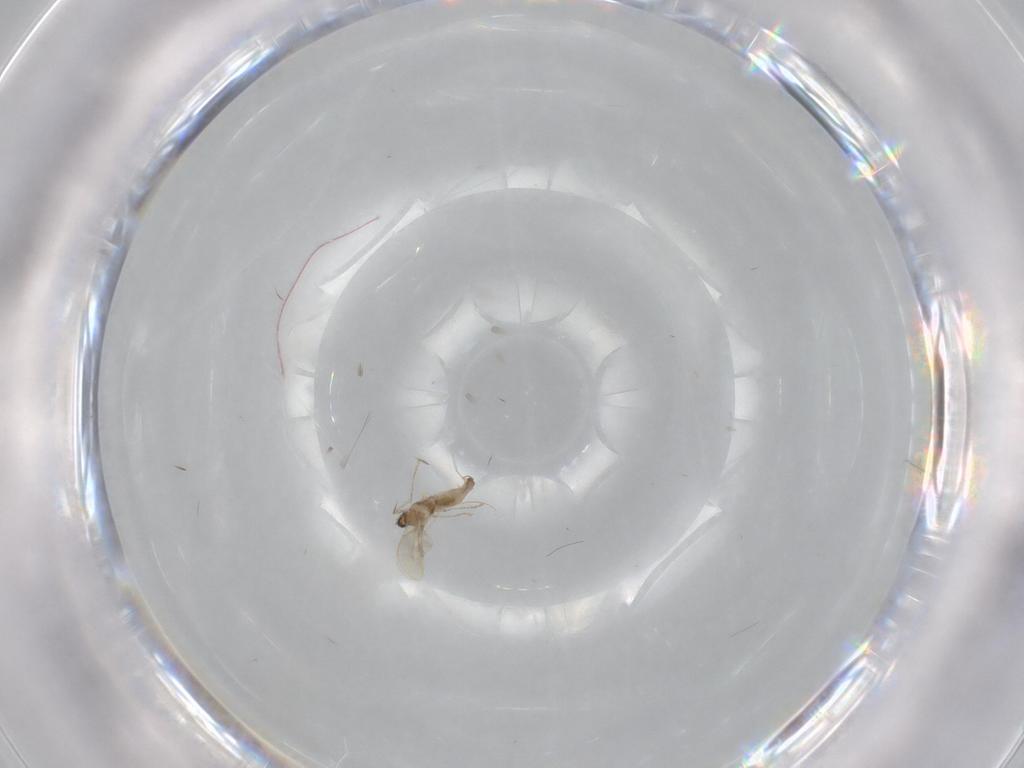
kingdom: Animalia
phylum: Arthropoda
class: Insecta
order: Diptera
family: Cecidomyiidae
